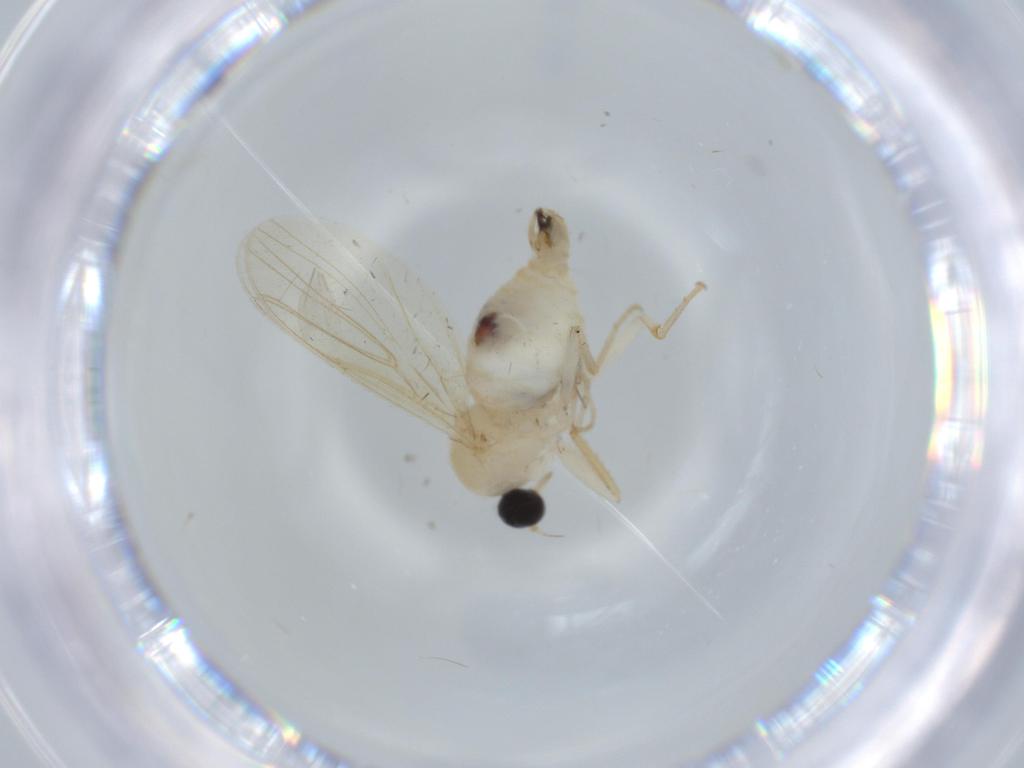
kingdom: Animalia
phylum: Arthropoda
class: Insecta
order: Diptera
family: Hybotidae
